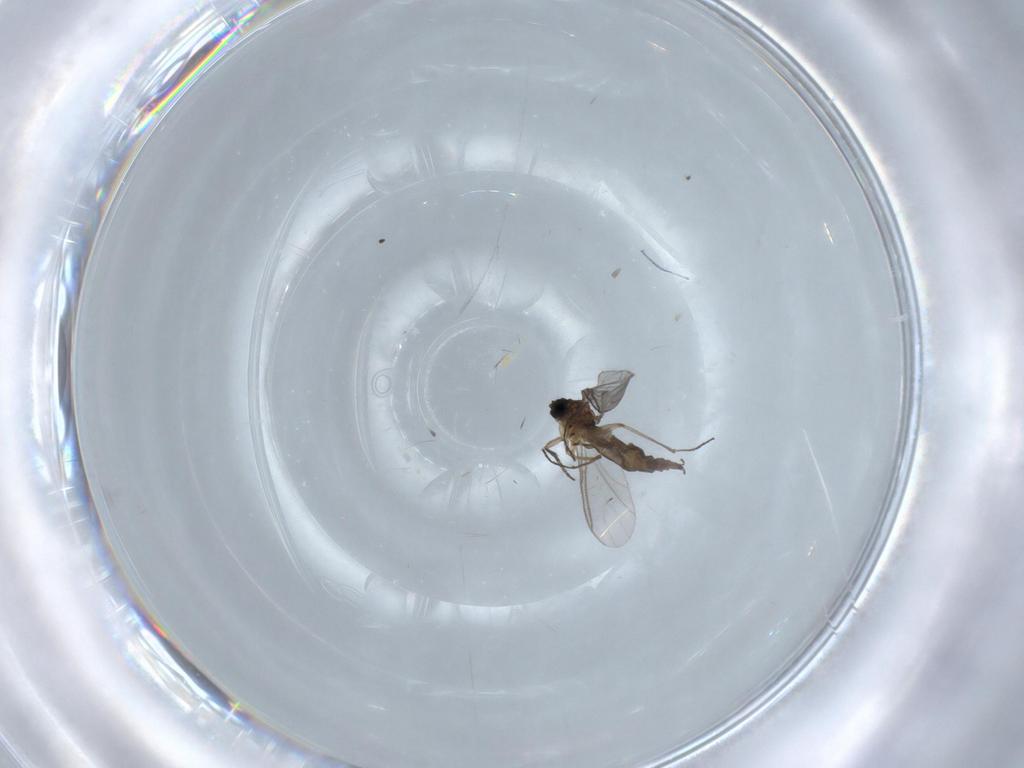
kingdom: Animalia
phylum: Arthropoda
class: Insecta
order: Diptera
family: Sciaridae
